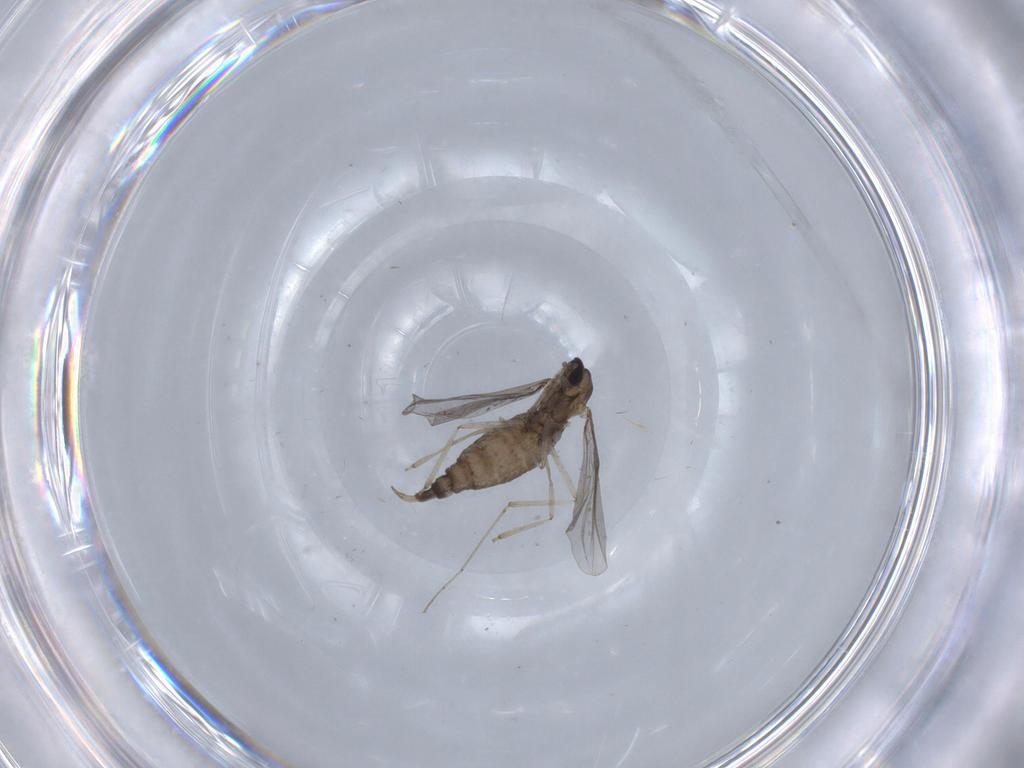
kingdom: Animalia
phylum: Arthropoda
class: Insecta
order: Diptera
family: Cecidomyiidae
